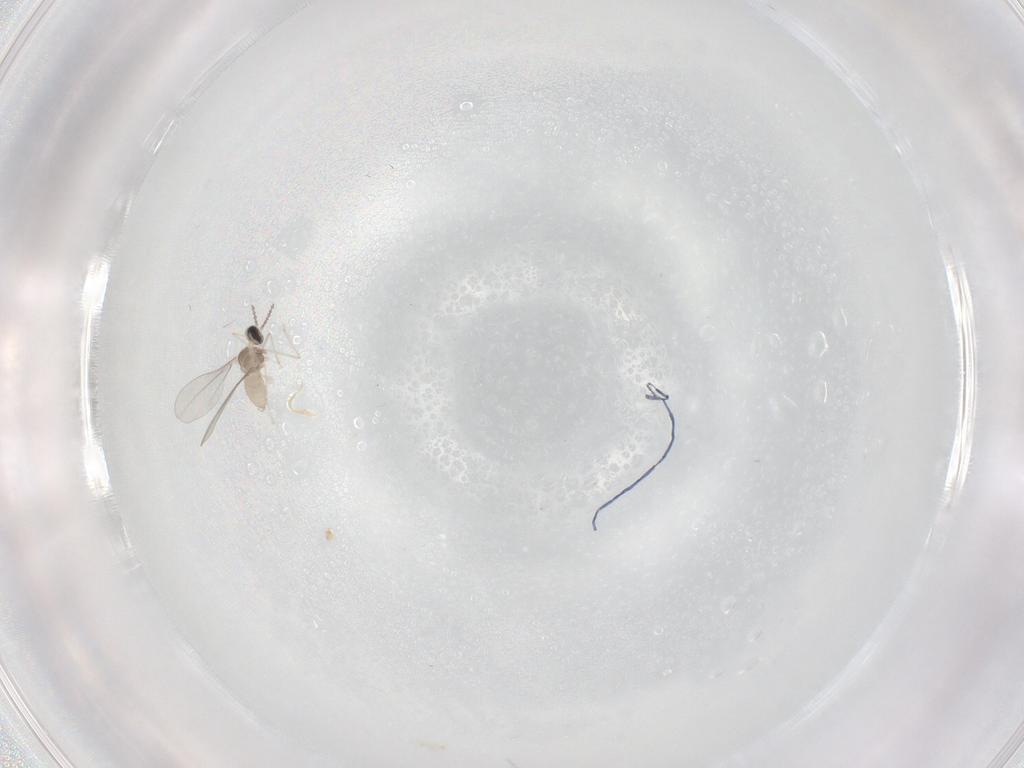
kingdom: Animalia
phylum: Arthropoda
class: Insecta
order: Diptera
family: Cecidomyiidae
